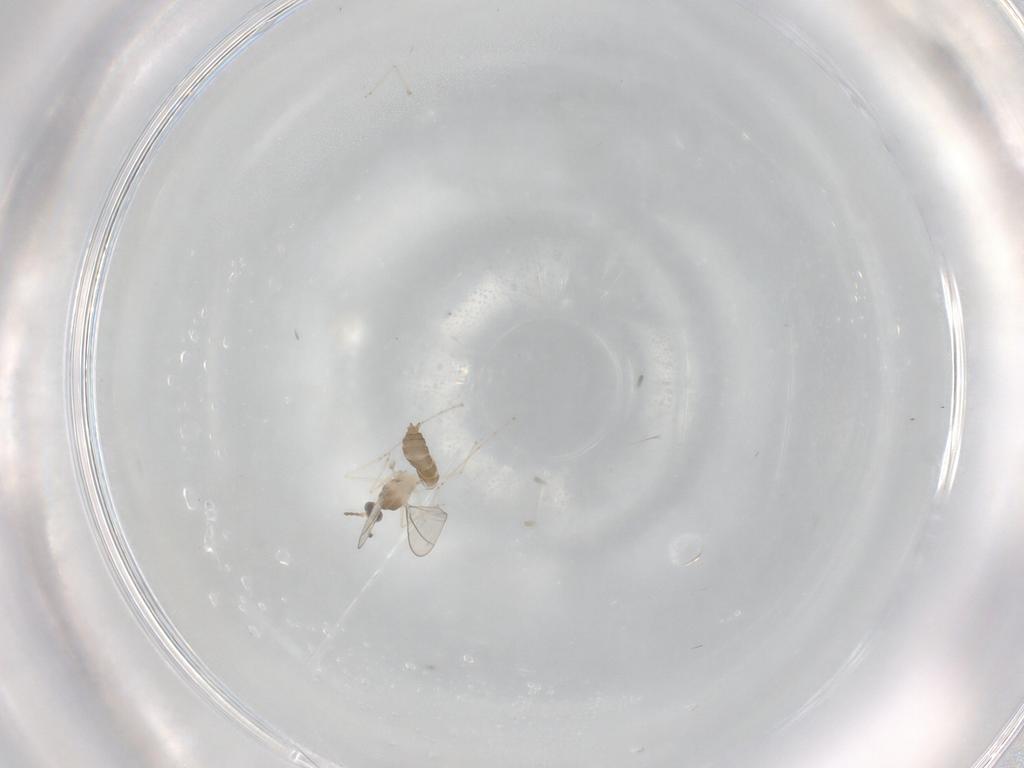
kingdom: Animalia
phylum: Arthropoda
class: Insecta
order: Diptera
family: Cecidomyiidae
